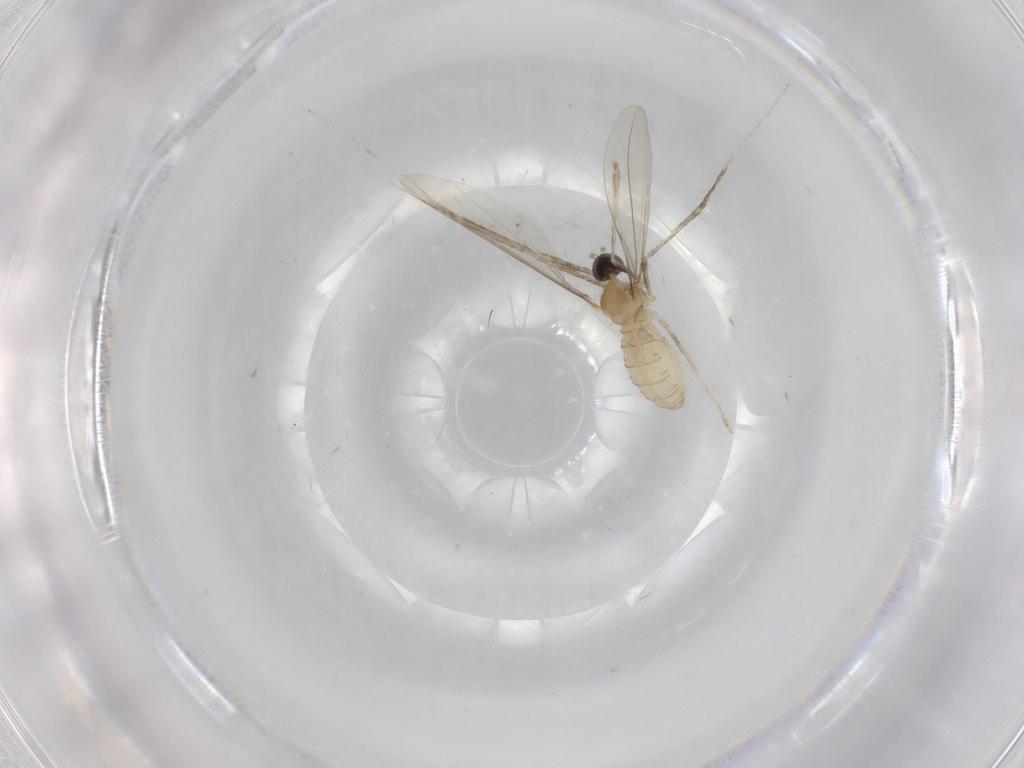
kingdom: Animalia
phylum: Arthropoda
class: Insecta
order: Diptera
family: Cecidomyiidae
